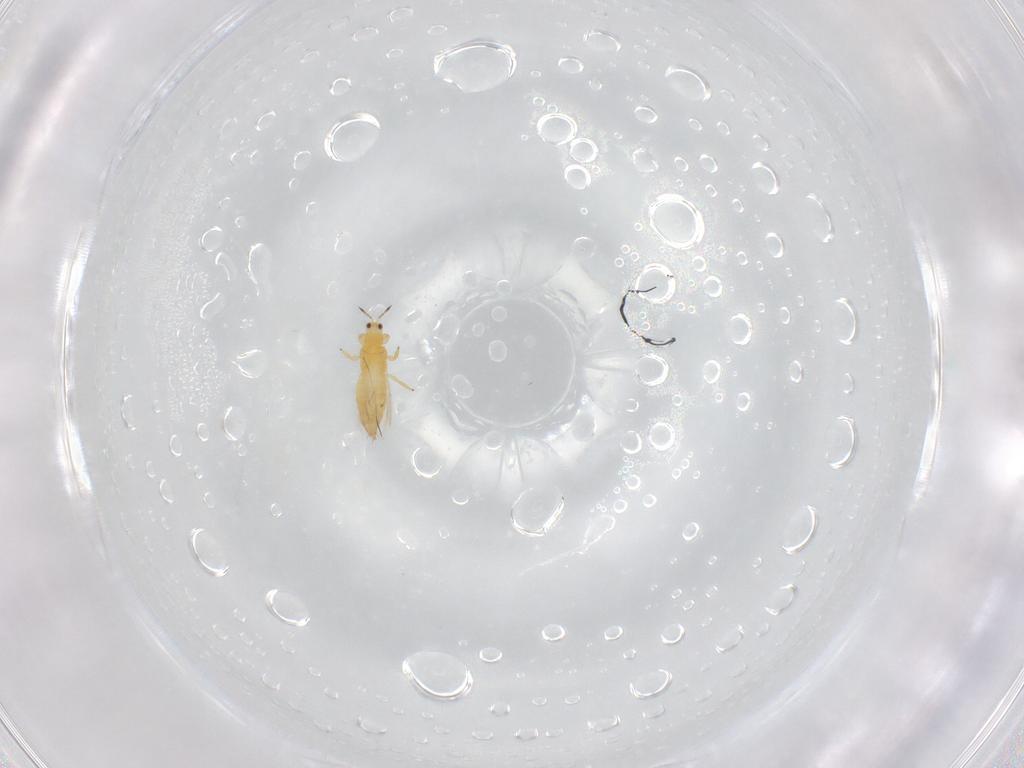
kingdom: Animalia
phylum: Arthropoda
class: Insecta
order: Thysanoptera
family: Thripidae
